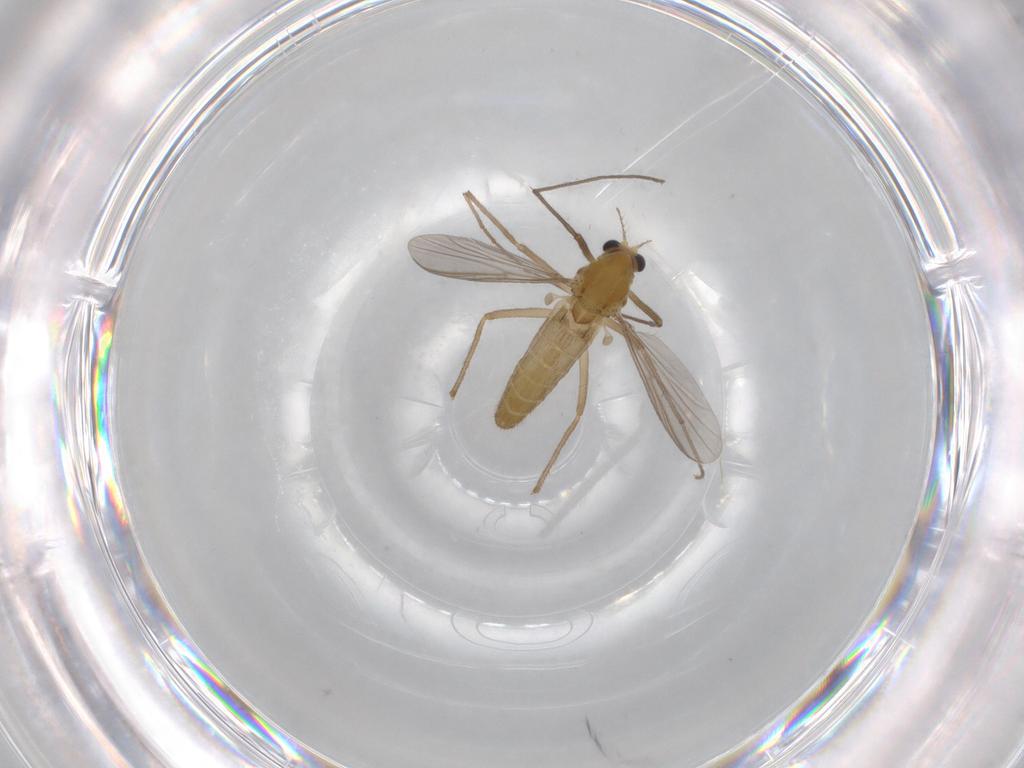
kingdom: Animalia
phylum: Arthropoda
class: Insecta
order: Diptera
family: Chironomidae
